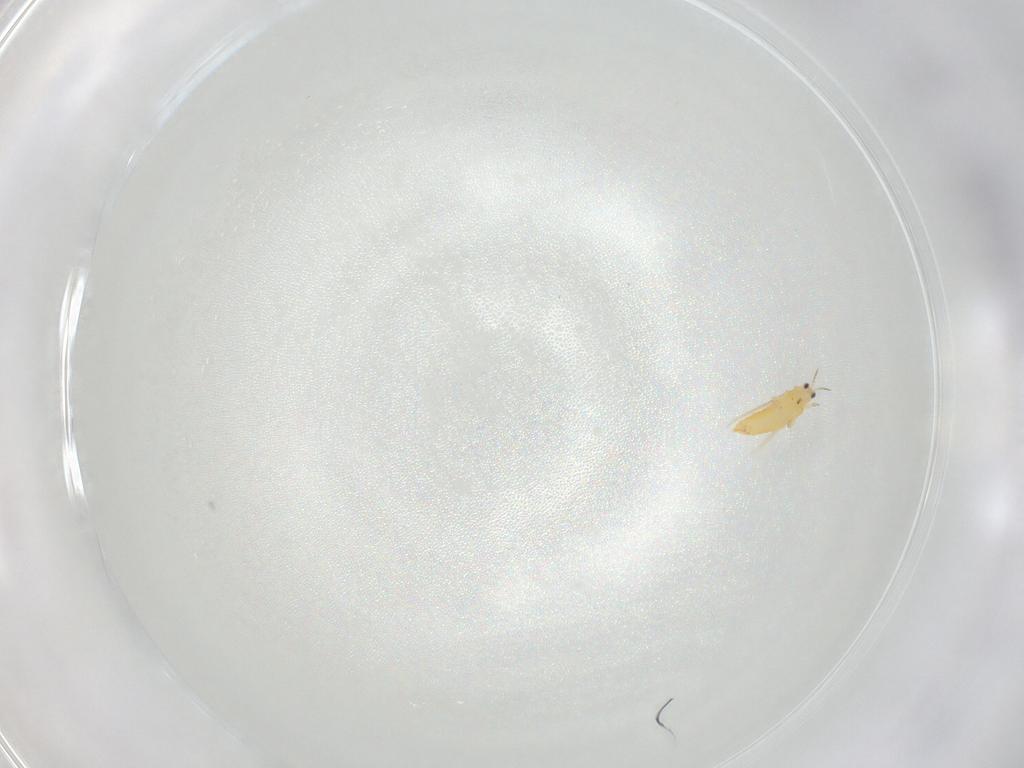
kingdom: Animalia
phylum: Arthropoda
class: Insecta
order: Thysanoptera
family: Thripidae
